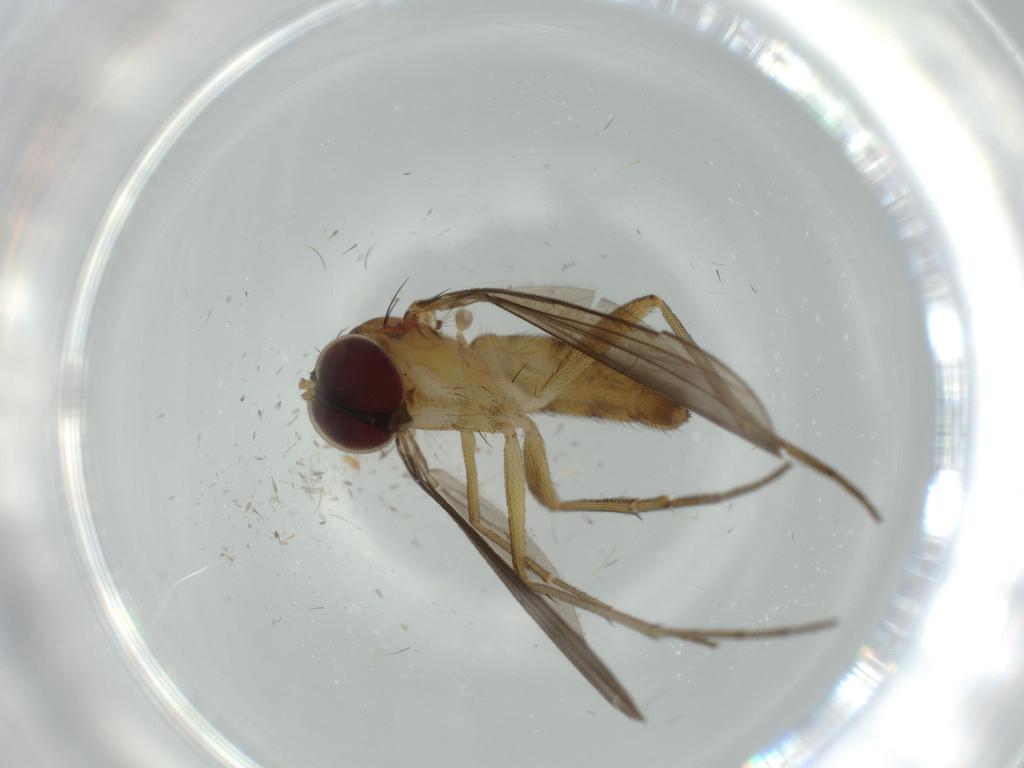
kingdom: Animalia
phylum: Arthropoda
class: Insecta
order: Diptera
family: Dolichopodidae
